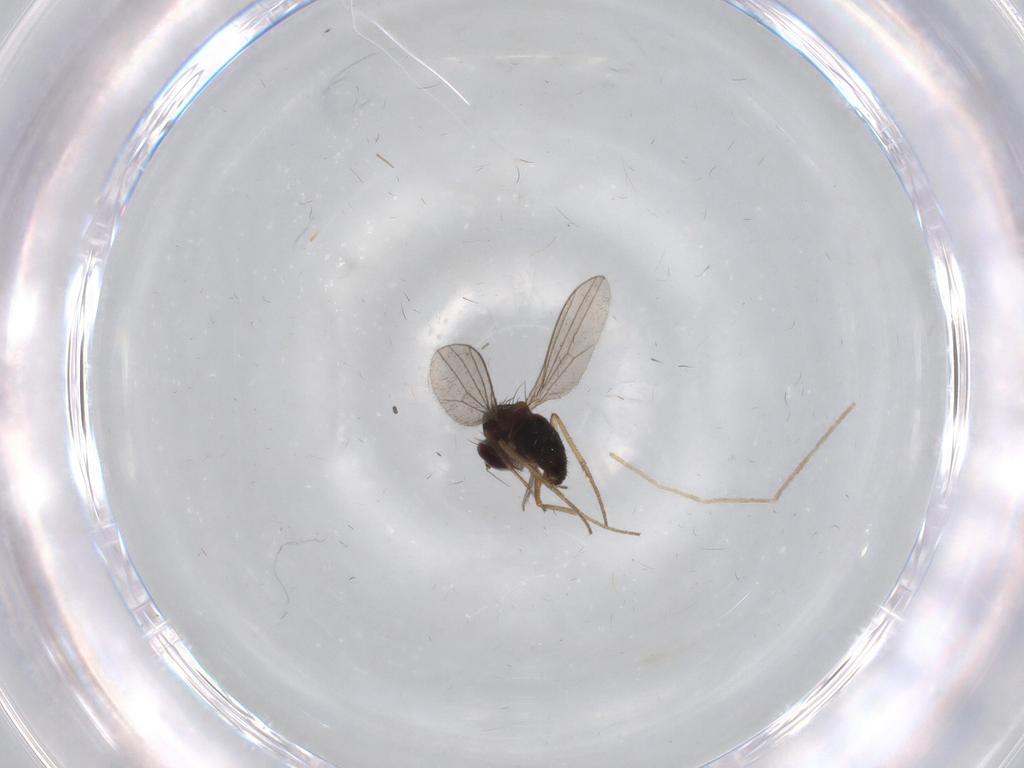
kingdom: Animalia
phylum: Arthropoda
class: Insecta
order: Diptera
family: Dolichopodidae
